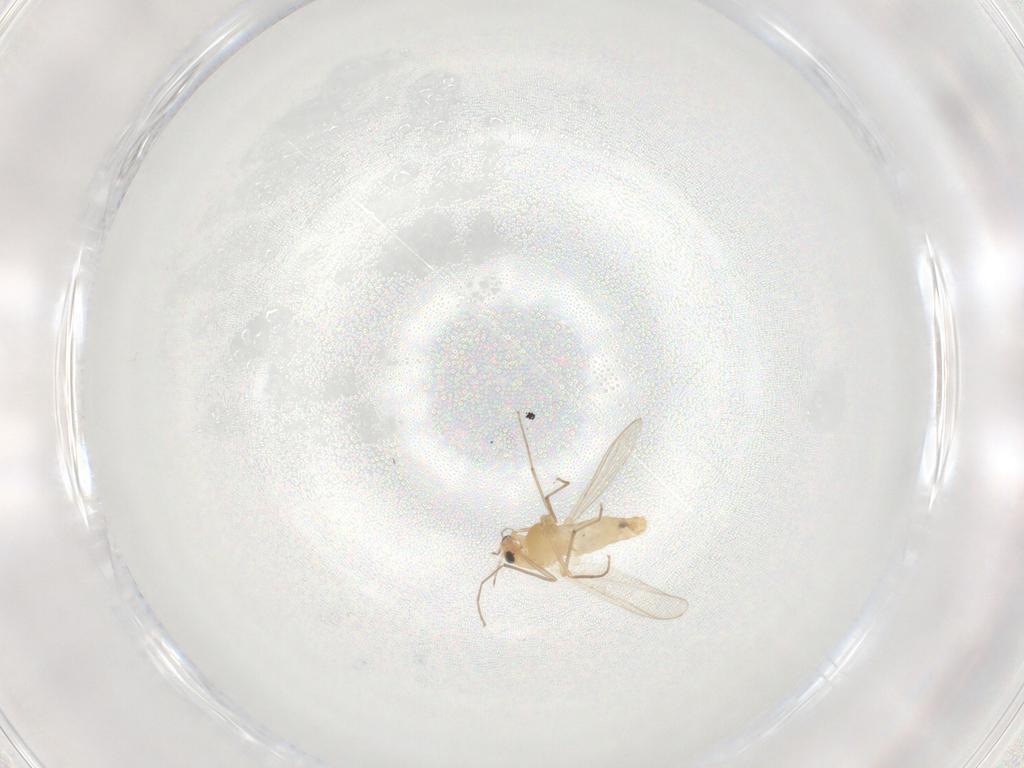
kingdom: Animalia
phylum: Arthropoda
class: Insecta
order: Diptera
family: Chironomidae
